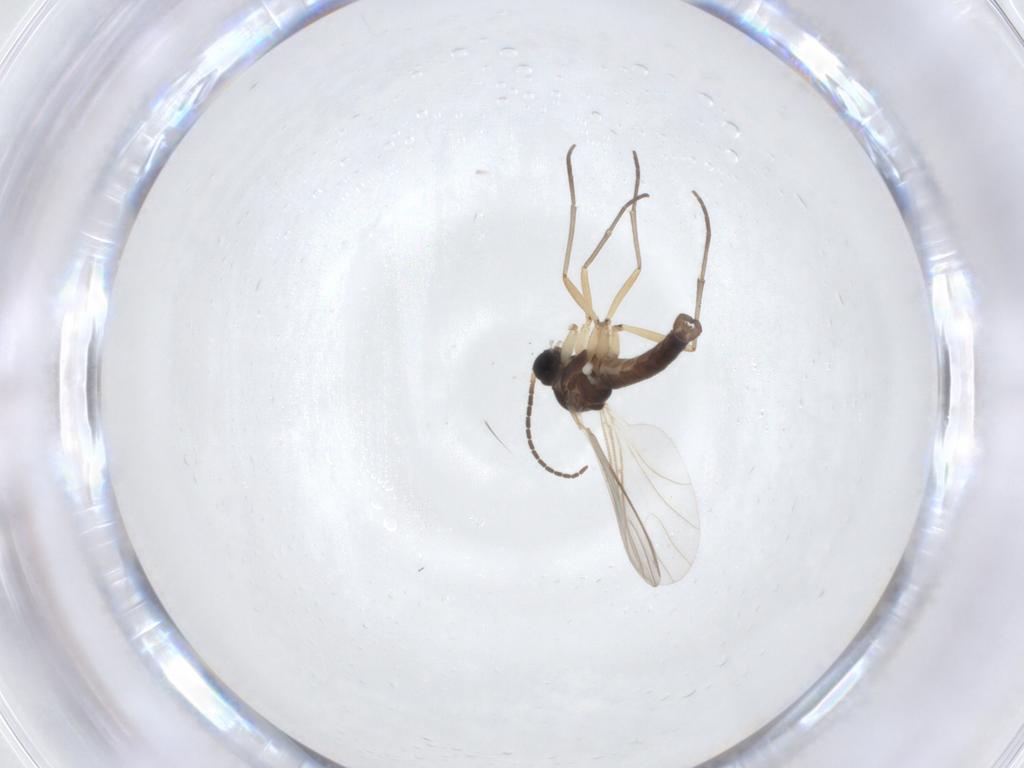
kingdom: Animalia
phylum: Arthropoda
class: Insecta
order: Diptera
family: Sciaridae
